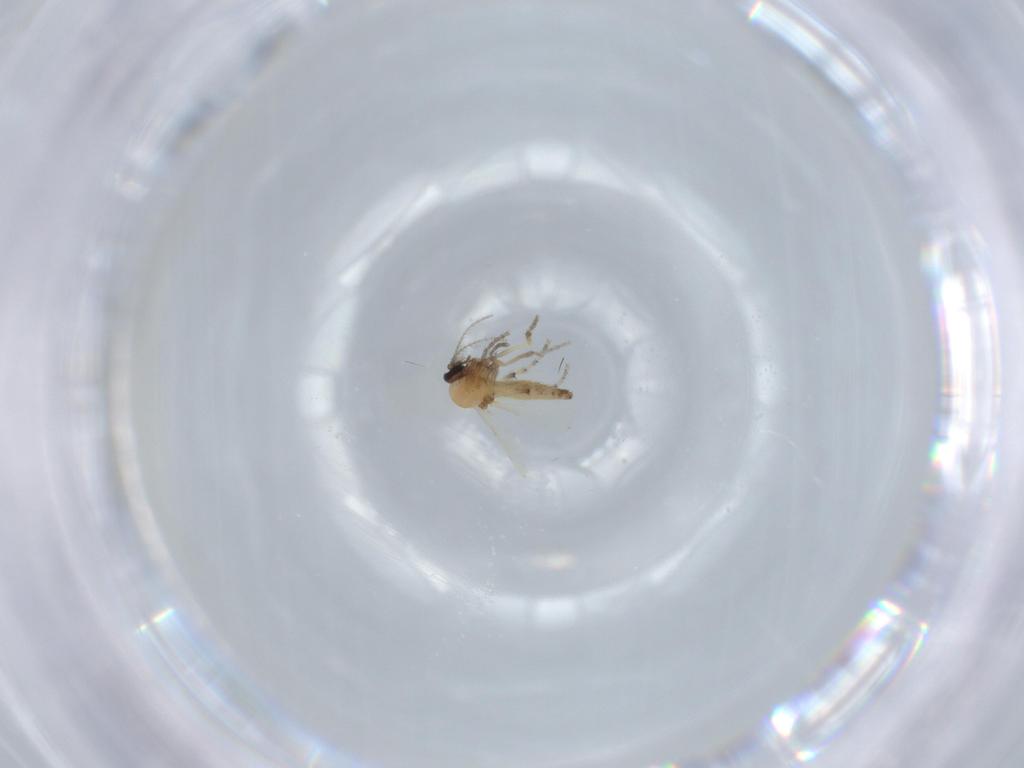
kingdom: Animalia
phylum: Arthropoda
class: Insecta
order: Diptera
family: Ceratopogonidae
